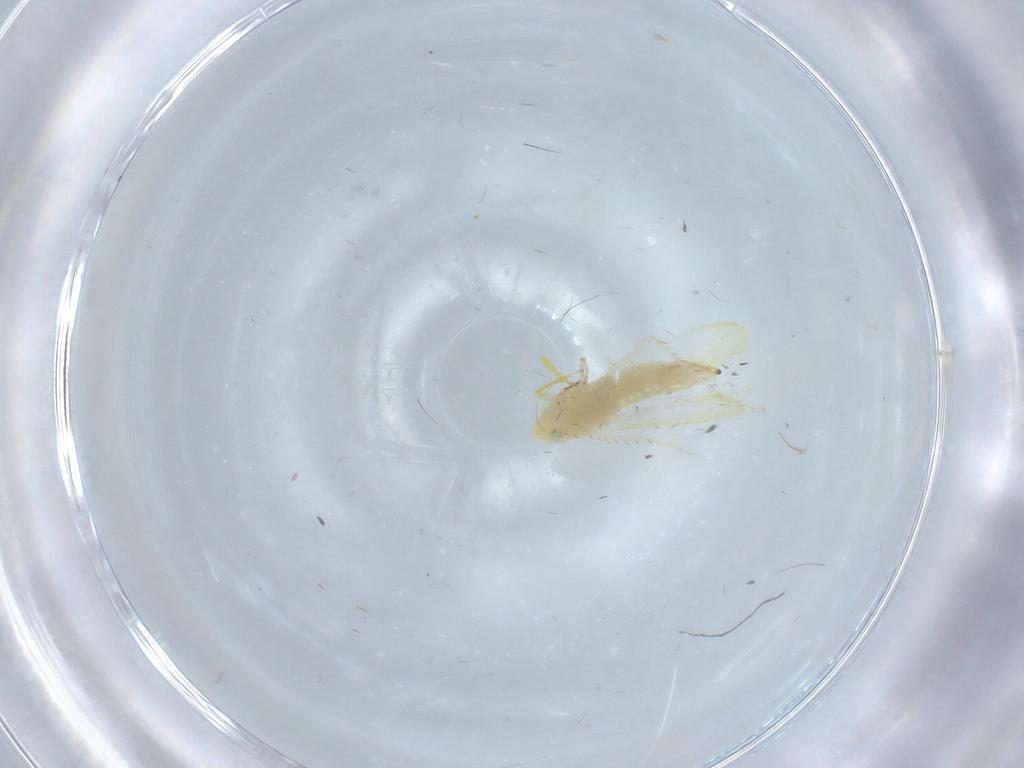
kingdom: Animalia
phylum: Arthropoda
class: Insecta
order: Hemiptera
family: Cicadellidae
